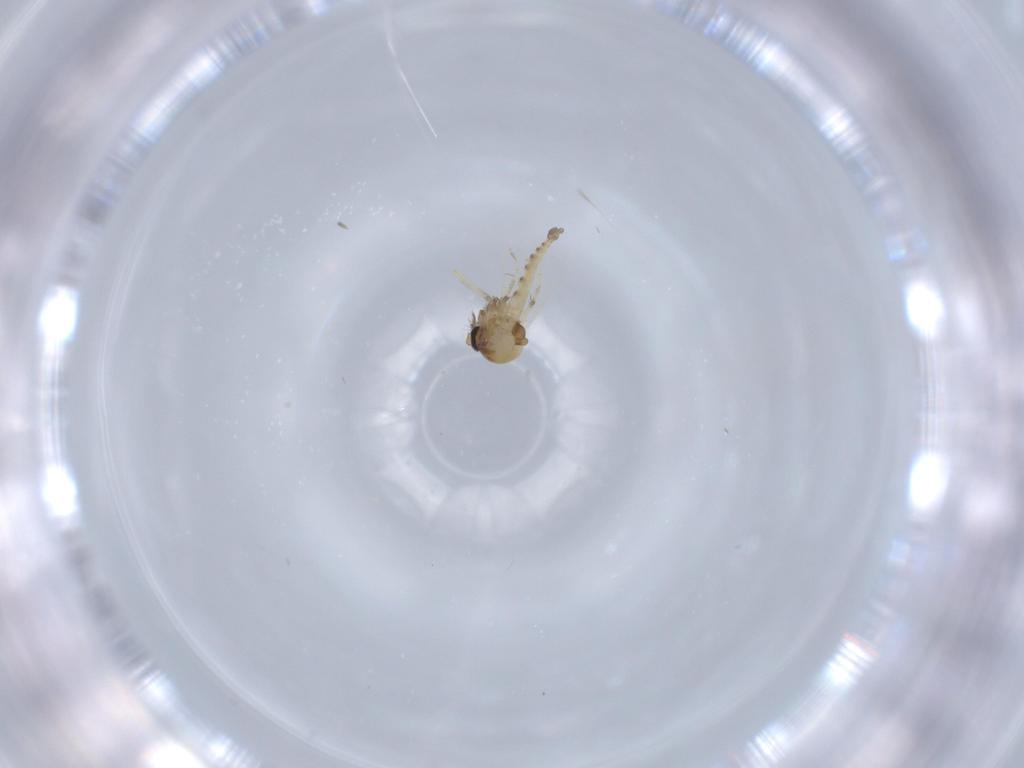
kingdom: Animalia
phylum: Arthropoda
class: Insecta
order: Diptera
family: Ceratopogonidae
